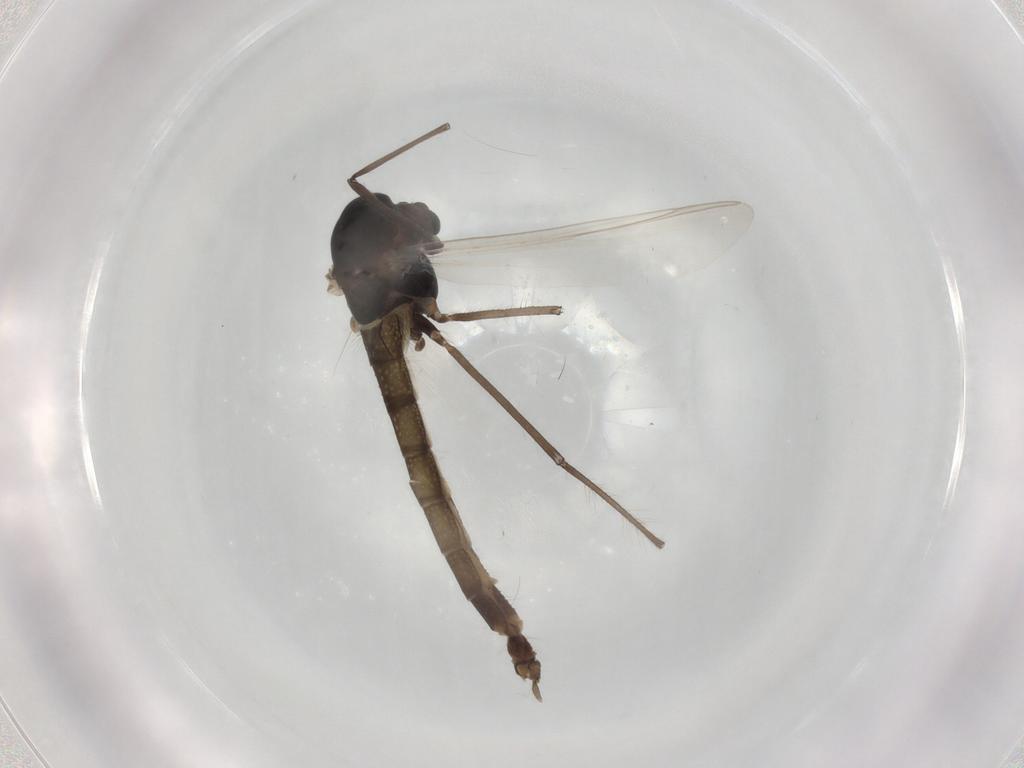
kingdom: Animalia
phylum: Arthropoda
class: Insecta
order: Diptera
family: Chironomidae
